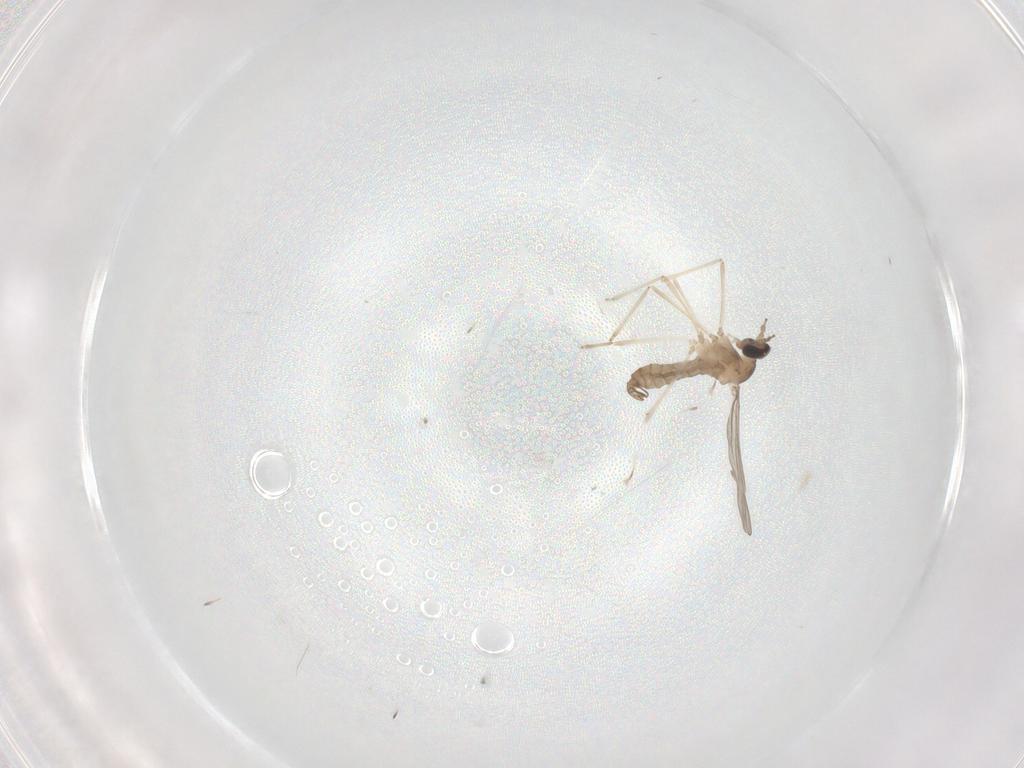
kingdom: Animalia
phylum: Arthropoda
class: Insecta
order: Diptera
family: Cecidomyiidae
